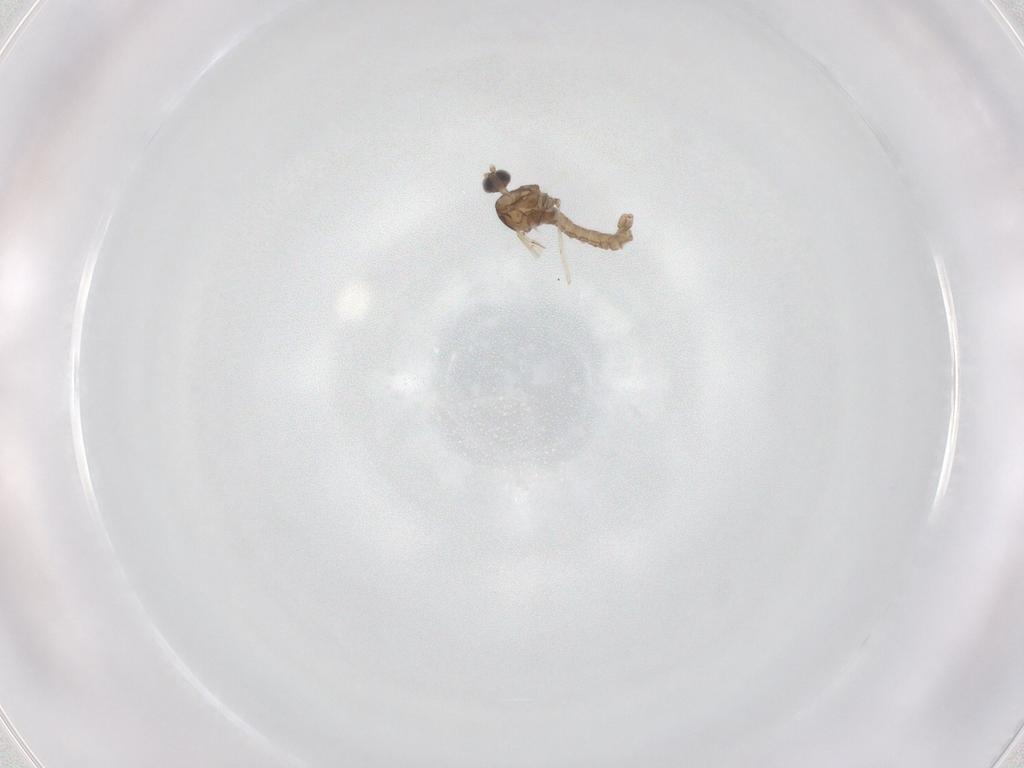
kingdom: Animalia
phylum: Arthropoda
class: Insecta
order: Diptera
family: Cecidomyiidae
